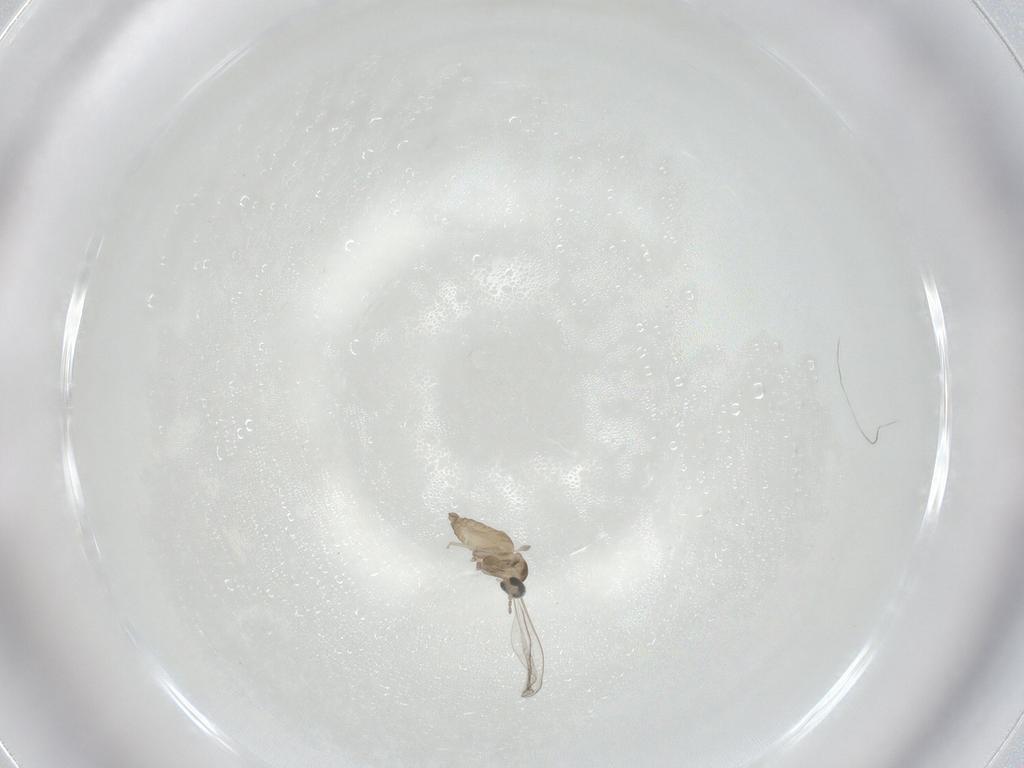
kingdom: Animalia
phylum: Arthropoda
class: Insecta
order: Diptera
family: Cecidomyiidae
